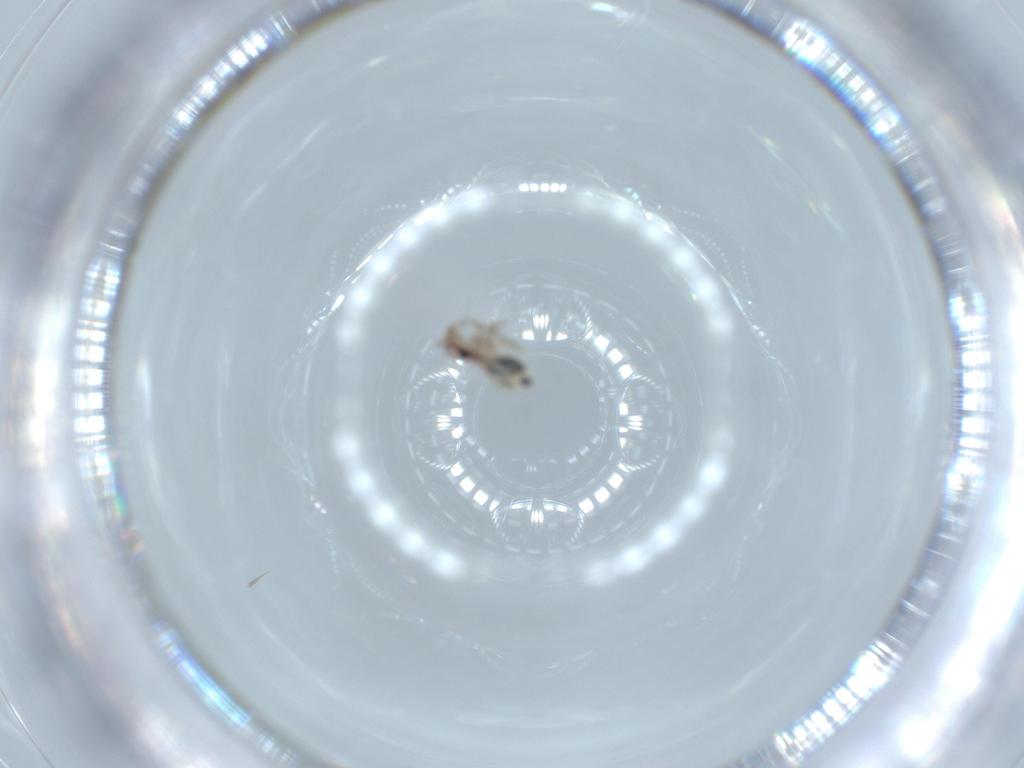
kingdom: Animalia
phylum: Arthropoda
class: Insecta
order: Psocodea
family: Lepidopsocidae
